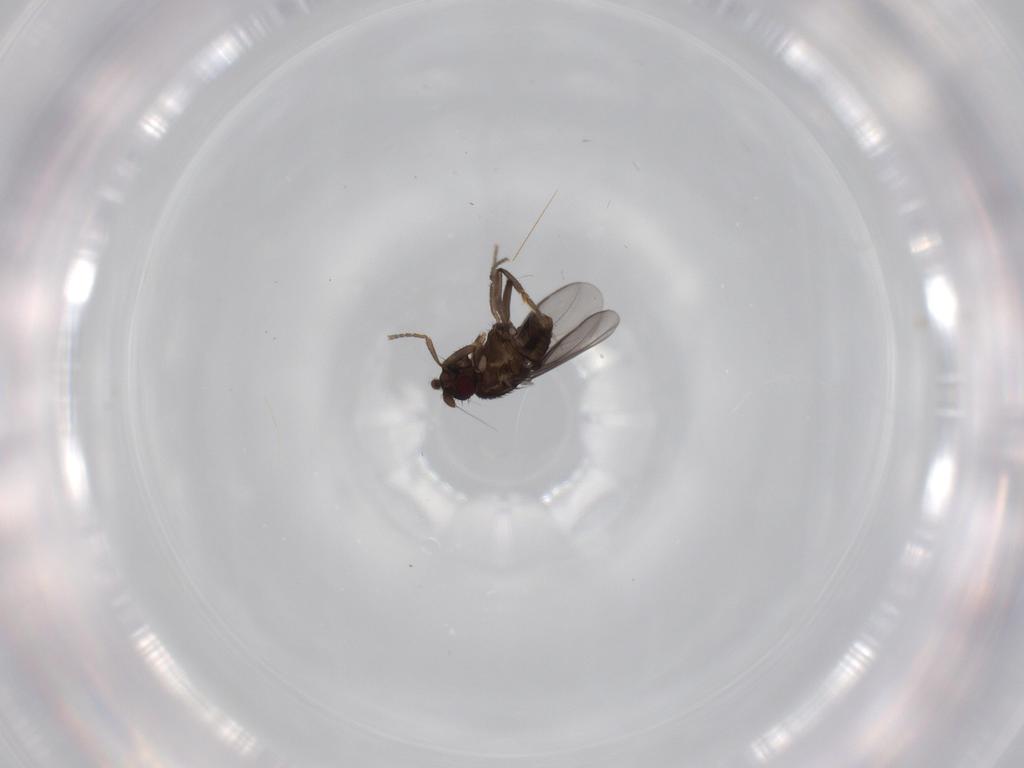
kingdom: Animalia
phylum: Arthropoda
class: Insecta
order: Diptera
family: Sphaeroceridae
